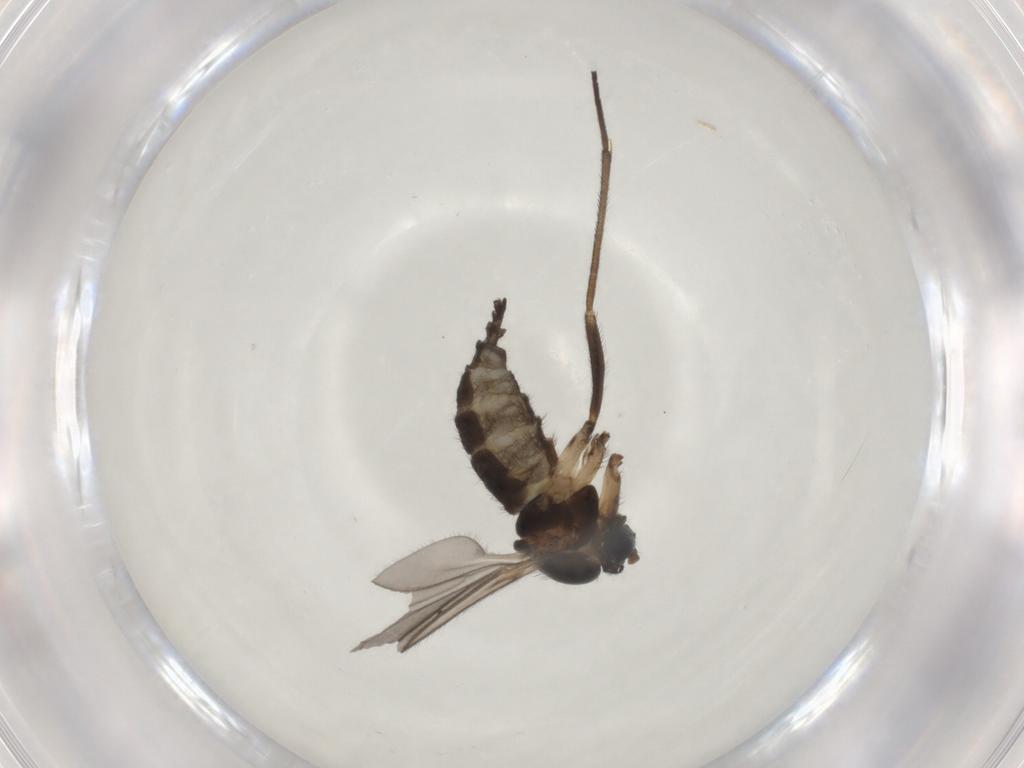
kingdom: Animalia
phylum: Arthropoda
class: Insecta
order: Diptera
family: Sciaridae
